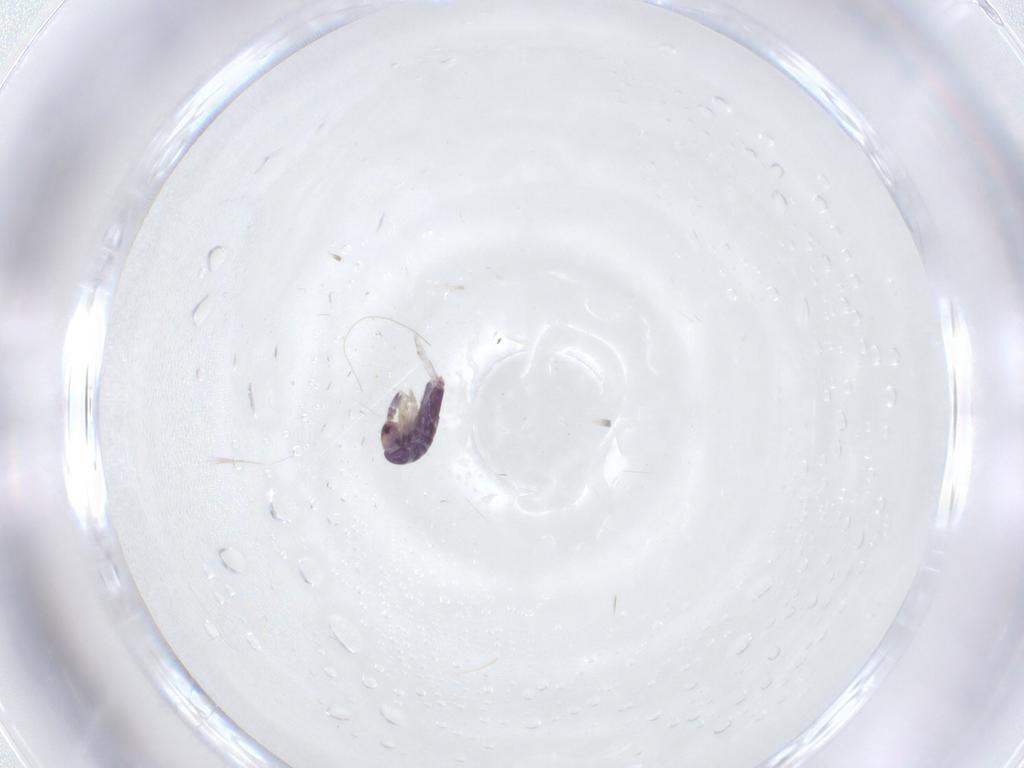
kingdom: Animalia
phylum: Arthropoda
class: Collembola
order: Entomobryomorpha
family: Entomobryidae
